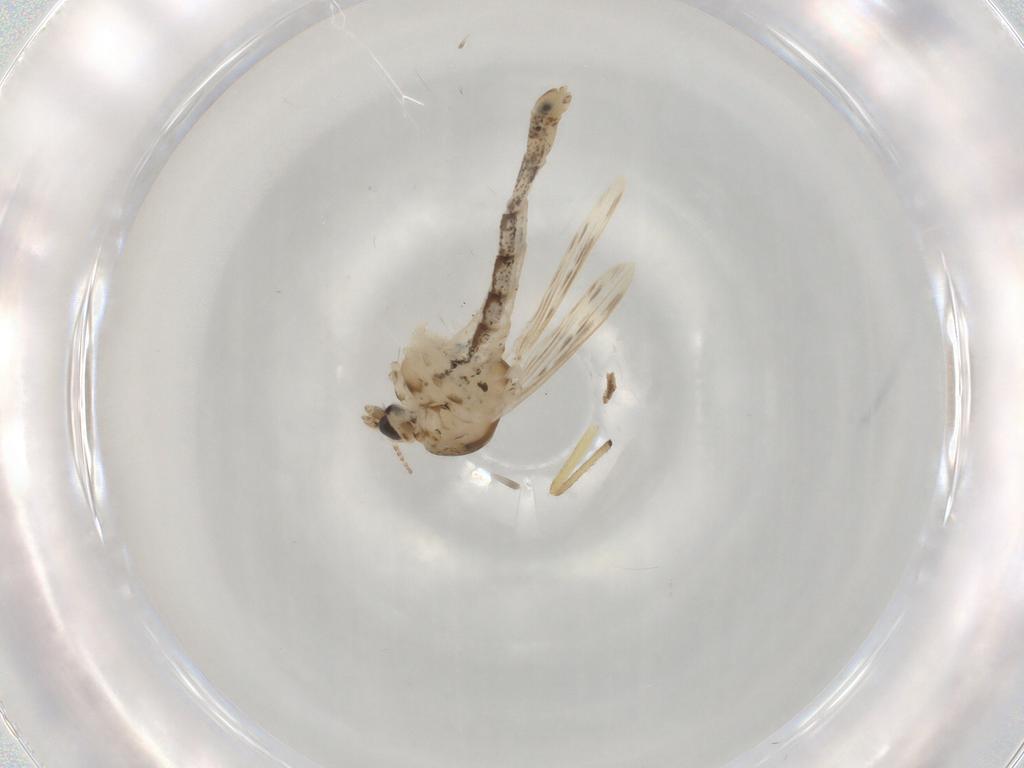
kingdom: Animalia
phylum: Arthropoda
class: Insecta
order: Diptera
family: Chaoboridae
